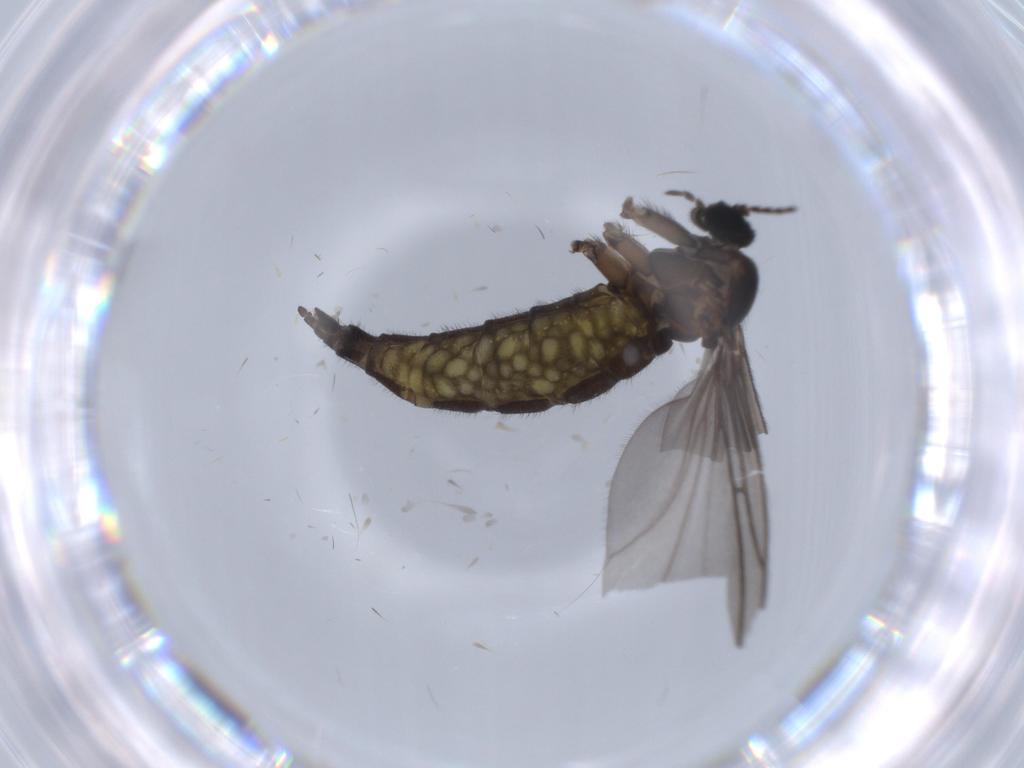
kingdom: Animalia
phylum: Arthropoda
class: Insecta
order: Diptera
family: Sciaridae
